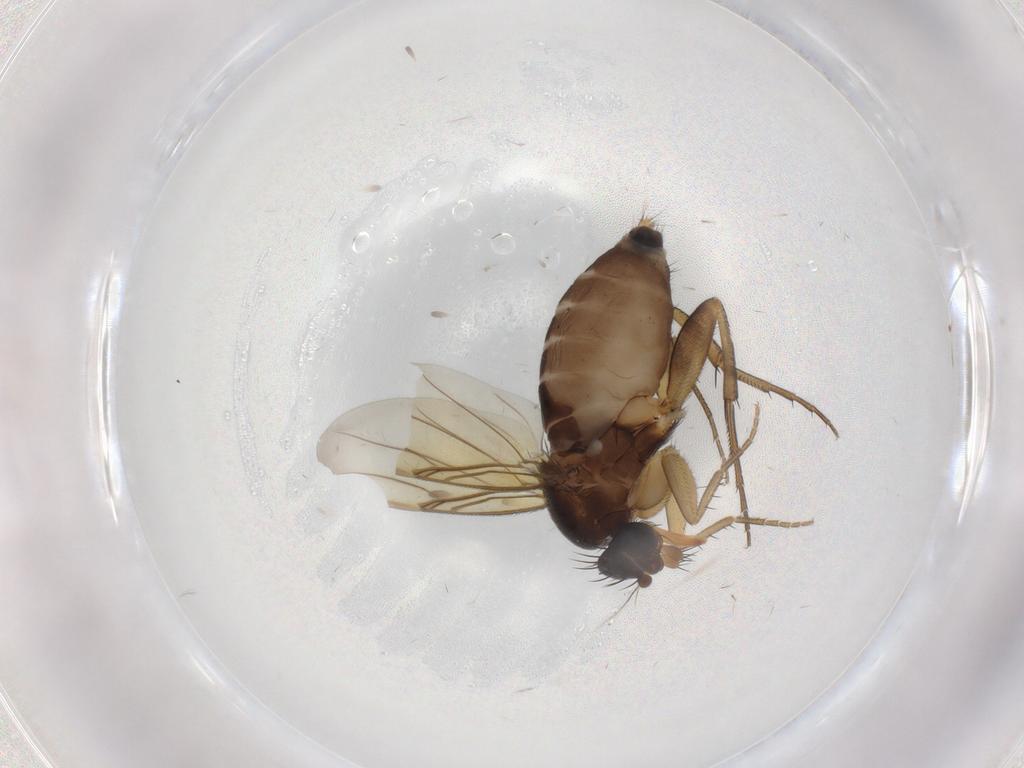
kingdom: Animalia
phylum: Arthropoda
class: Insecta
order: Diptera
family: Phoridae
